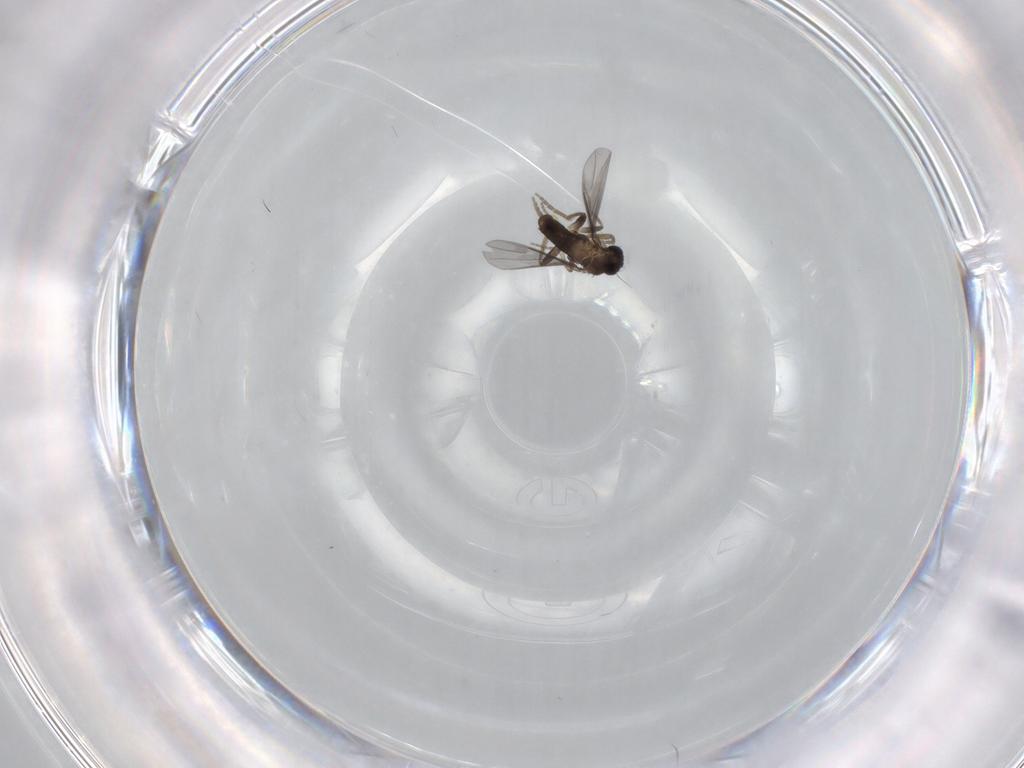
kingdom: Animalia
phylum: Arthropoda
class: Insecta
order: Diptera
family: Phoridae
